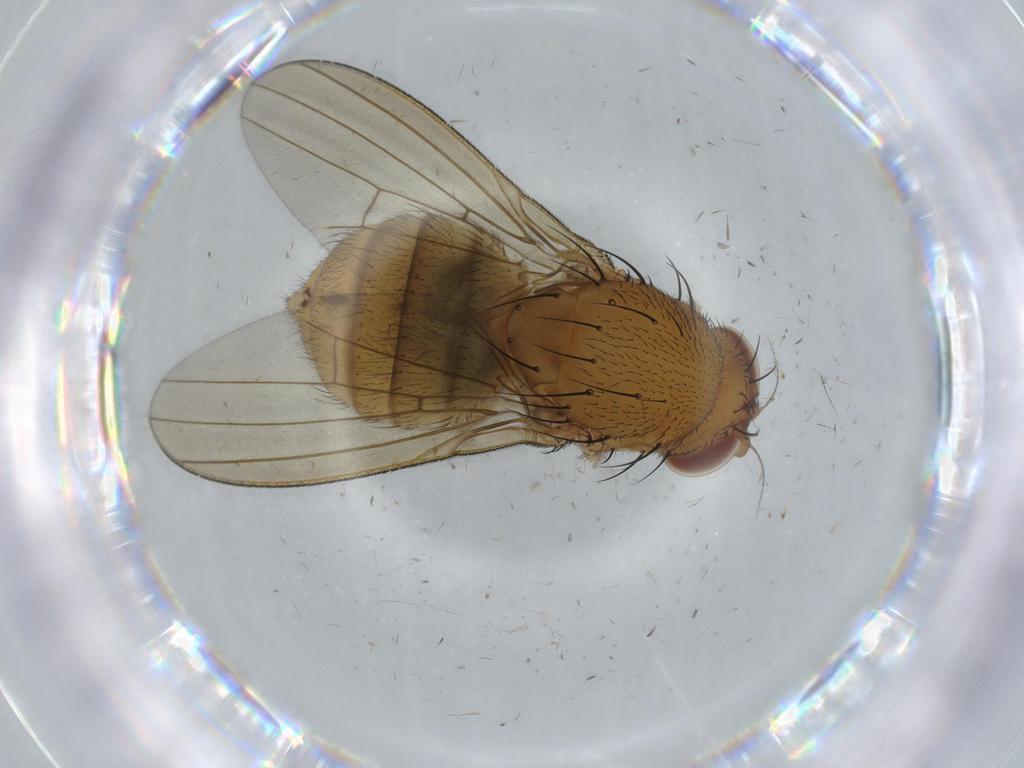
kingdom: Animalia
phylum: Arthropoda
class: Insecta
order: Diptera
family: Chironomidae
